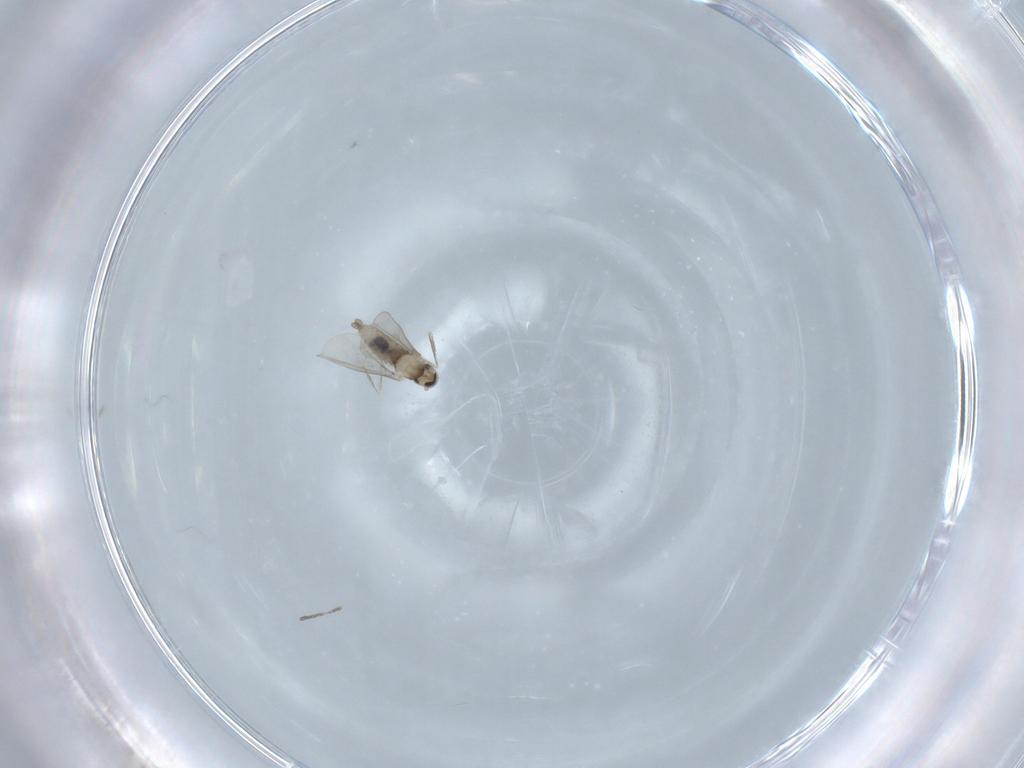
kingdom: Animalia
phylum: Arthropoda
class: Insecta
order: Diptera
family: Cecidomyiidae
